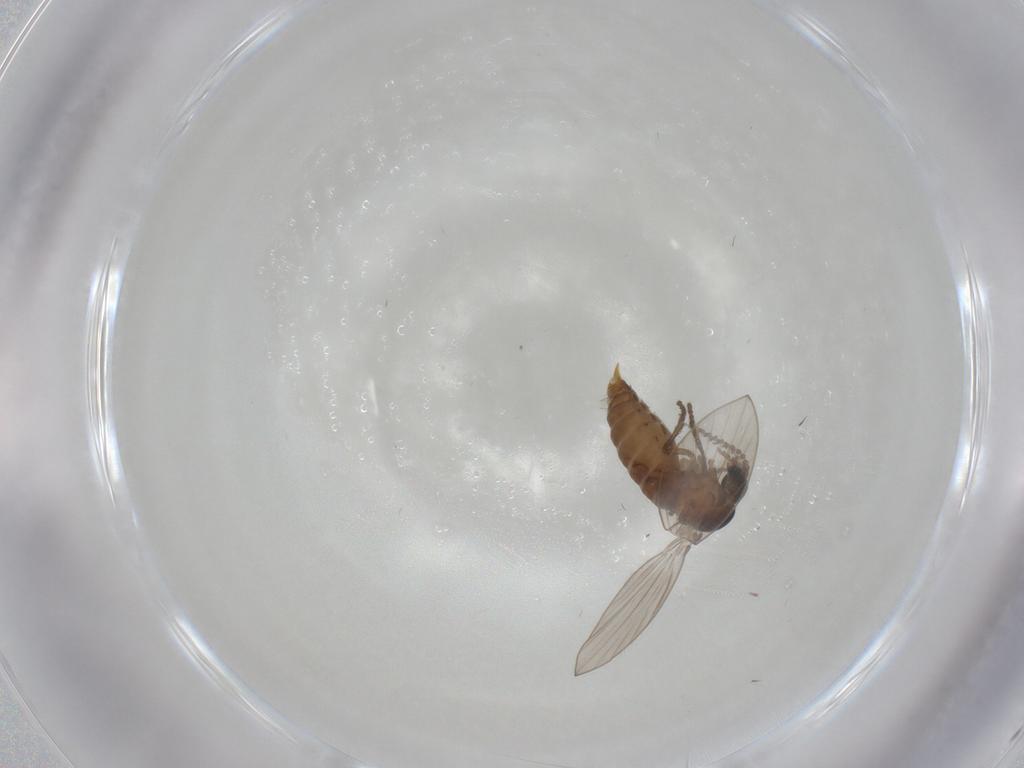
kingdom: Animalia
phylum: Arthropoda
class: Insecta
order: Diptera
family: Psychodidae
